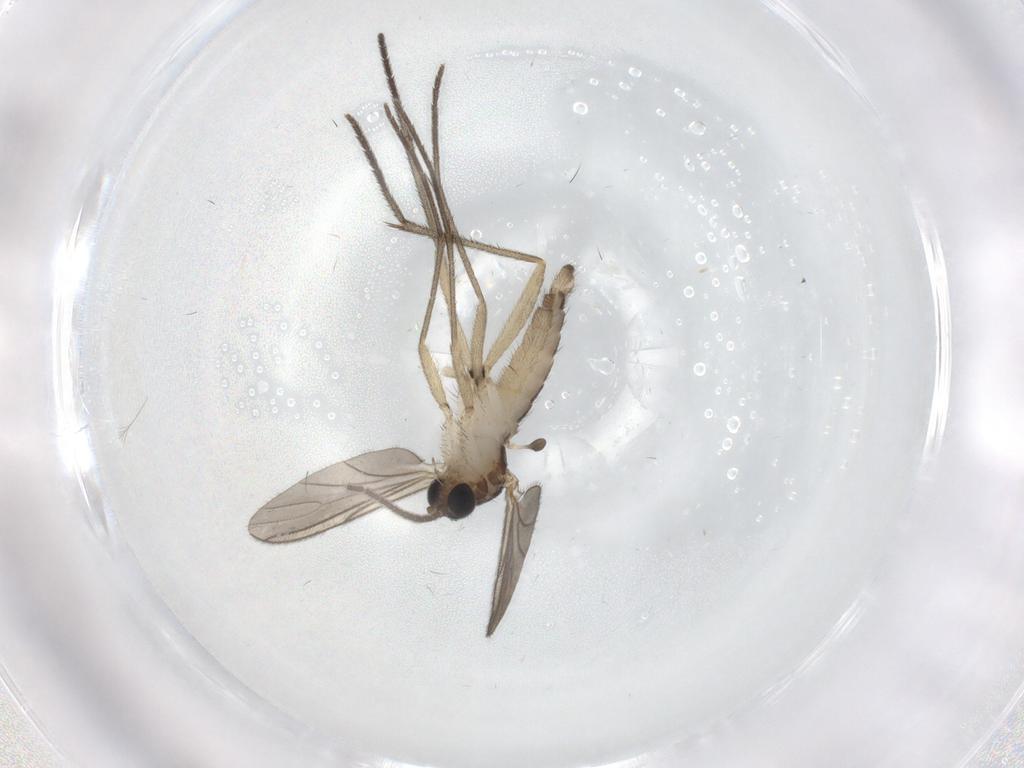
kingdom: Animalia
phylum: Arthropoda
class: Insecta
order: Diptera
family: Sciaridae
